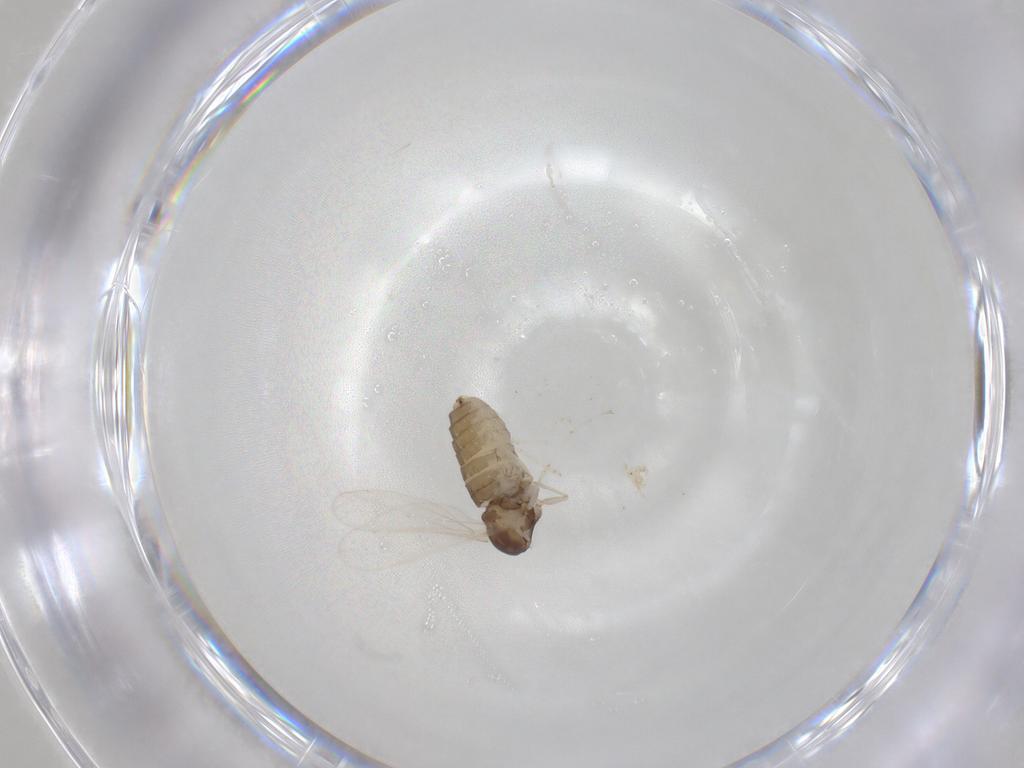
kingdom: Animalia
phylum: Arthropoda
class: Insecta
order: Diptera
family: Cecidomyiidae
